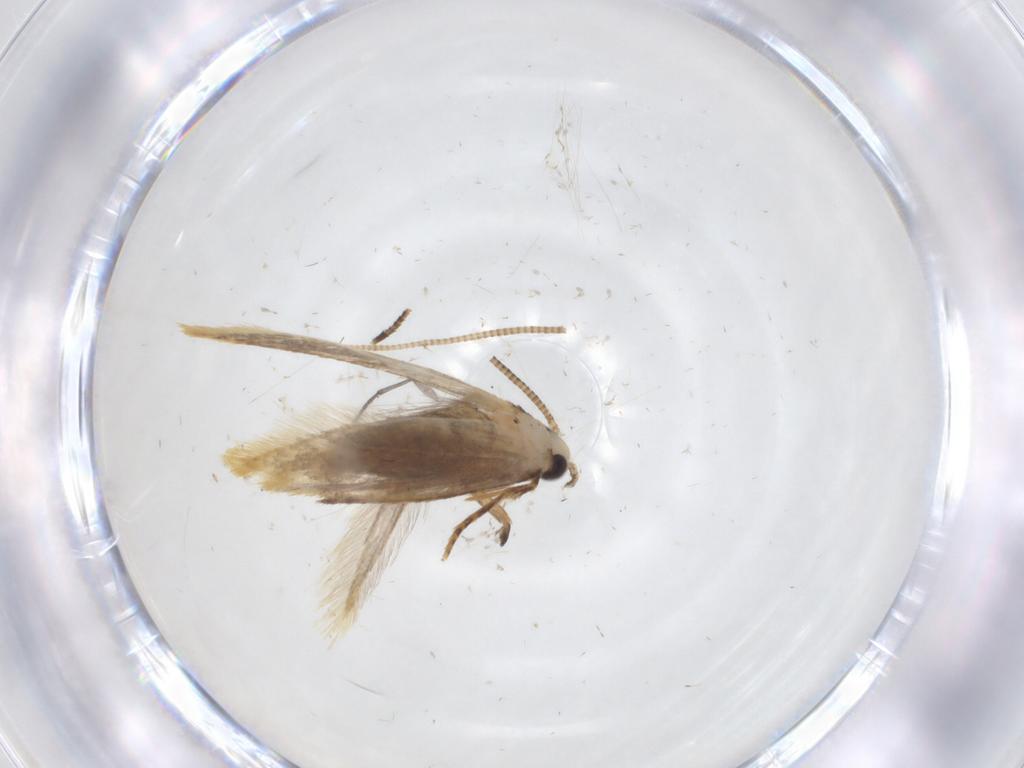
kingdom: Animalia
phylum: Arthropoda
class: Insecta
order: Lepidoptera
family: Tineidae
